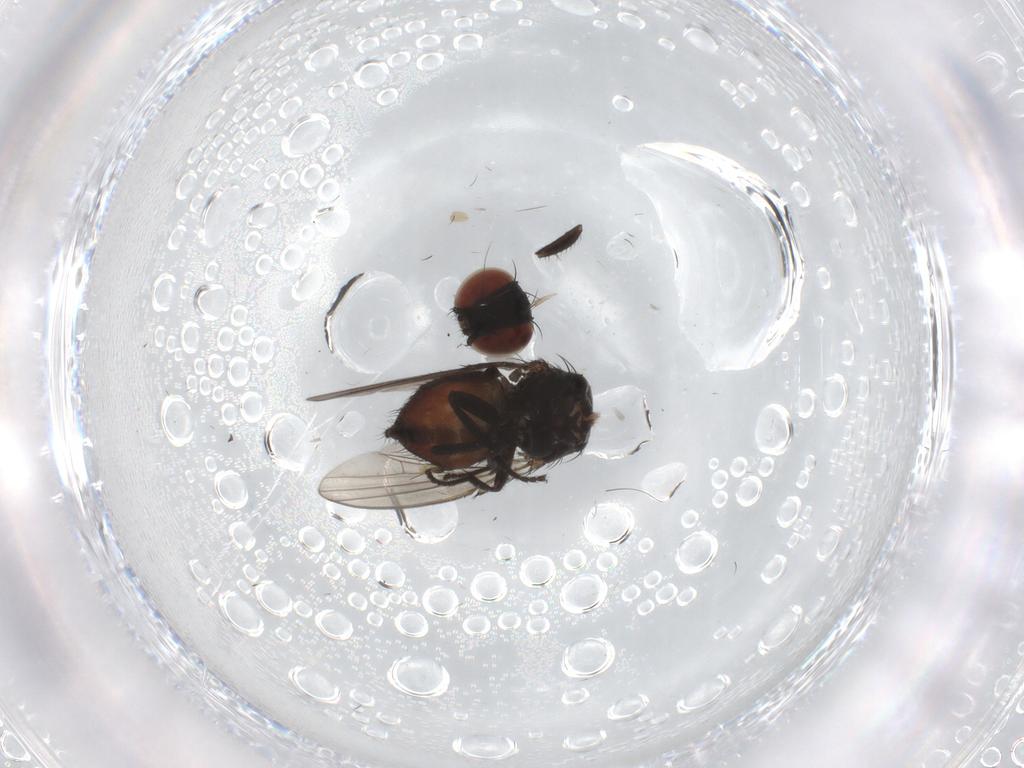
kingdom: Animalia
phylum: Arthropoda
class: Insecta
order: Diptera
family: Milichiidae
